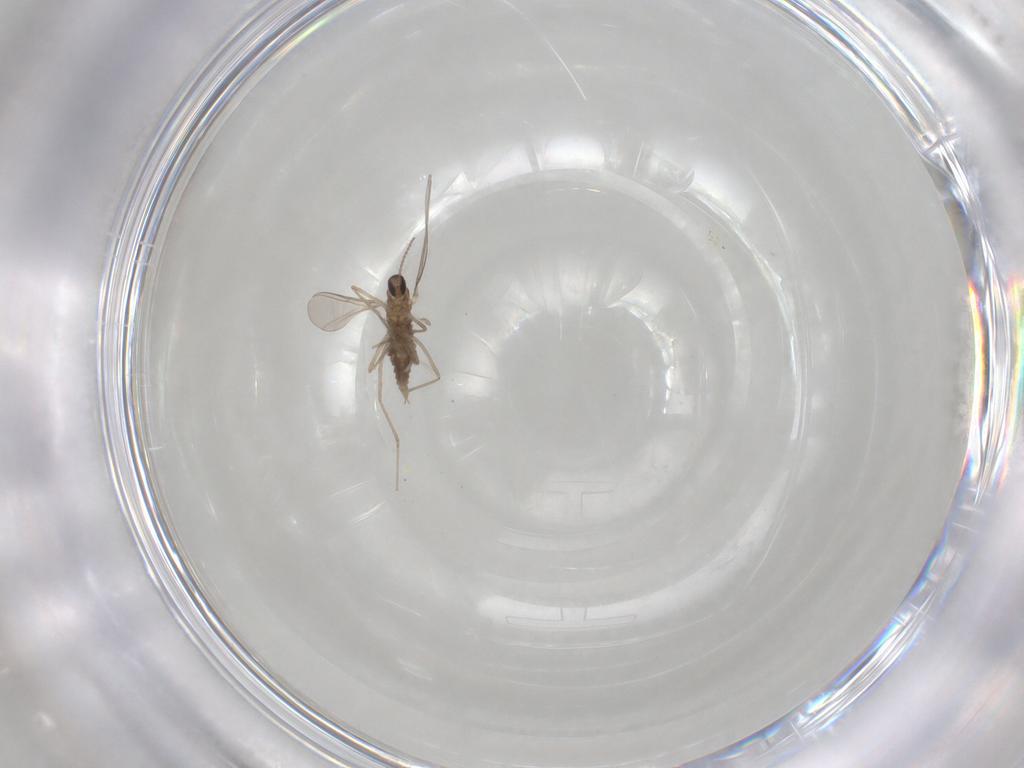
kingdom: Animalia
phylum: Arthropoda
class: Insecta
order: Diptera
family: Cecidomyiidae
